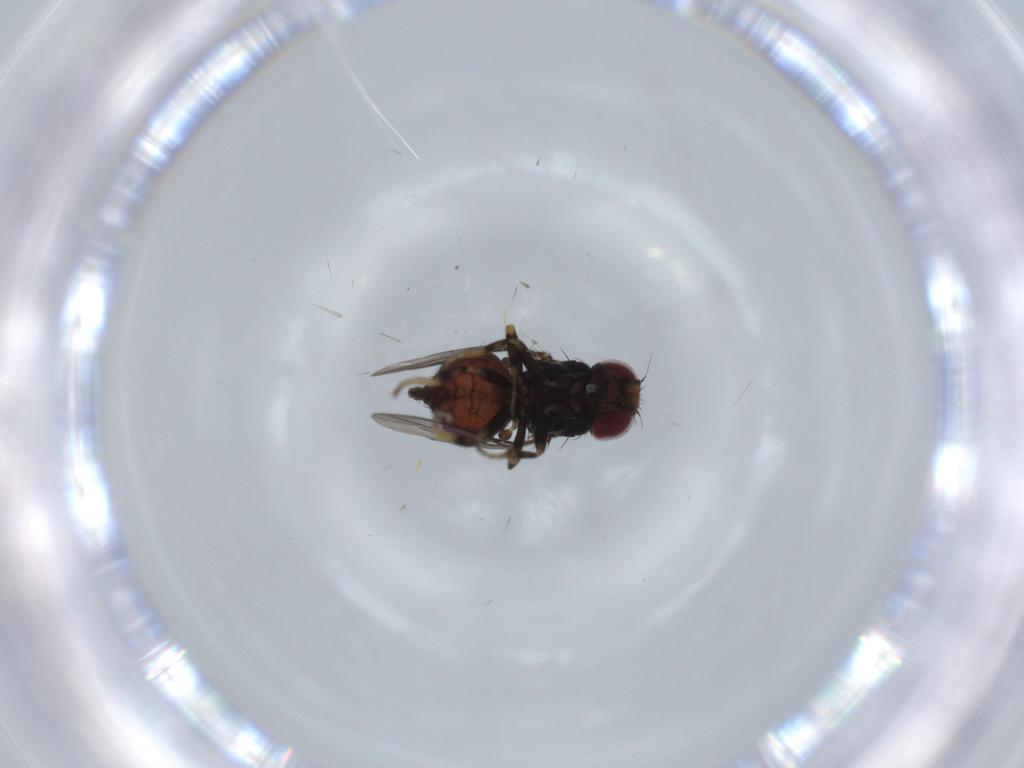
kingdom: Animalia
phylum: Arthropoda
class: Insecta
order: Diptera
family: Chloropidae
